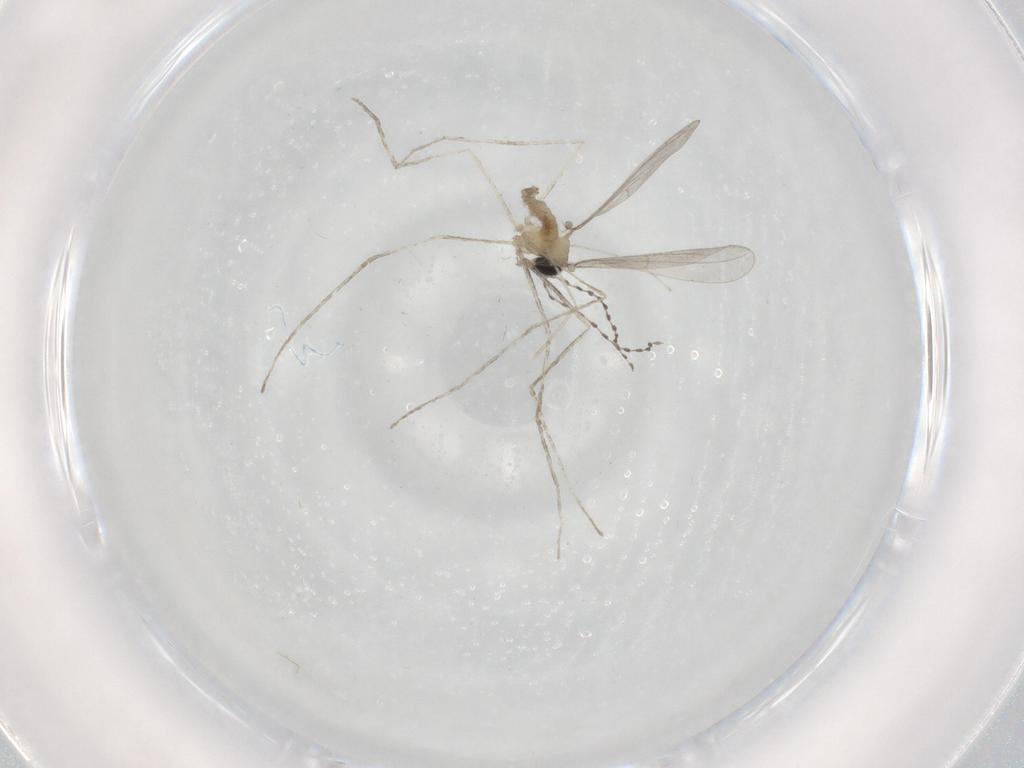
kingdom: Animalia
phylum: Arthropoda
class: Insecta
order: Diptera
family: Cecidomyiidae
